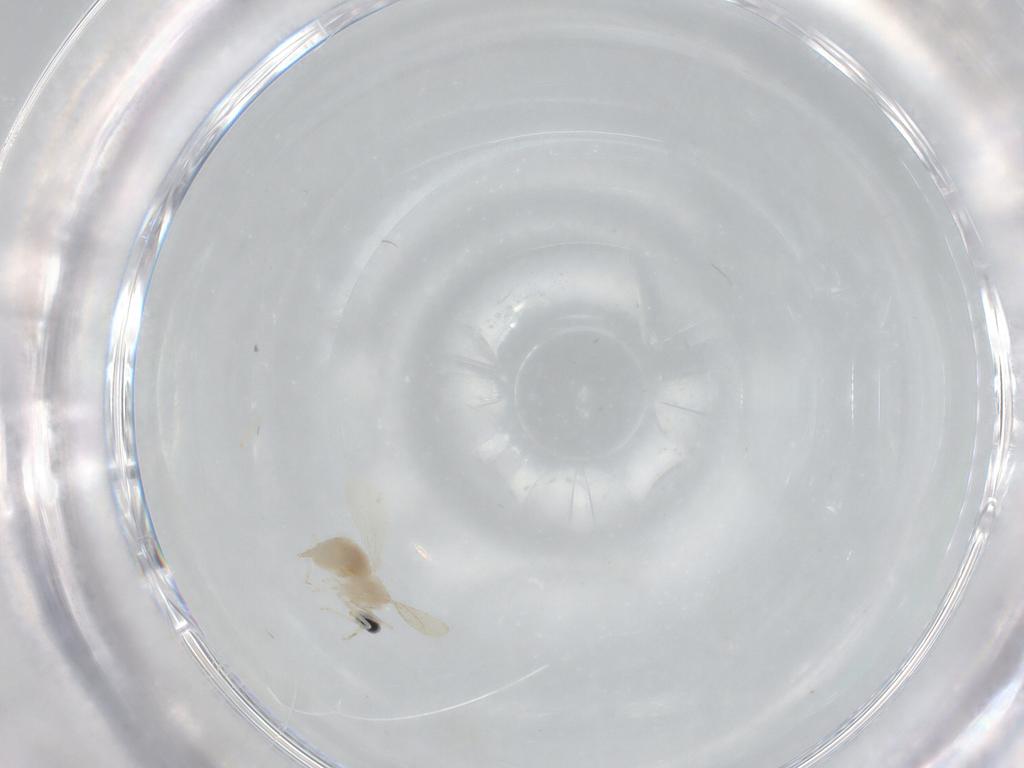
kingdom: Animalia
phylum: Arthropoda
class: Insecta
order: Diptera
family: Cecidomyiidae
